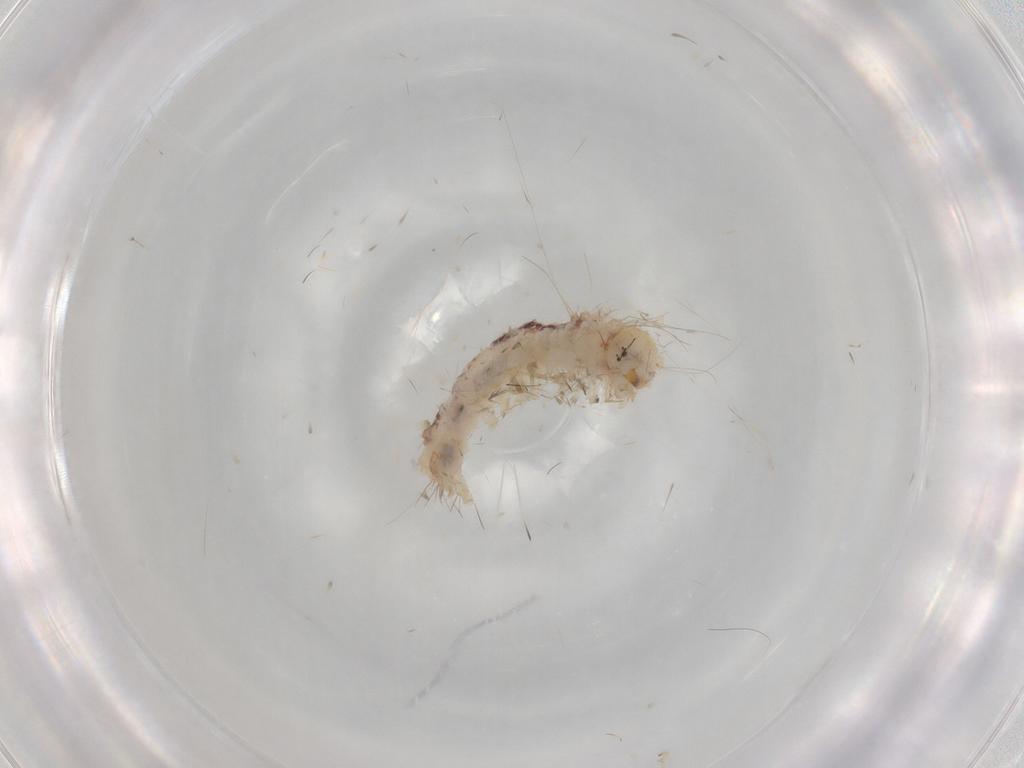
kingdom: Animalia
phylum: Arthropoda
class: Insecta
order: Lepidoptera
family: Erebidae
